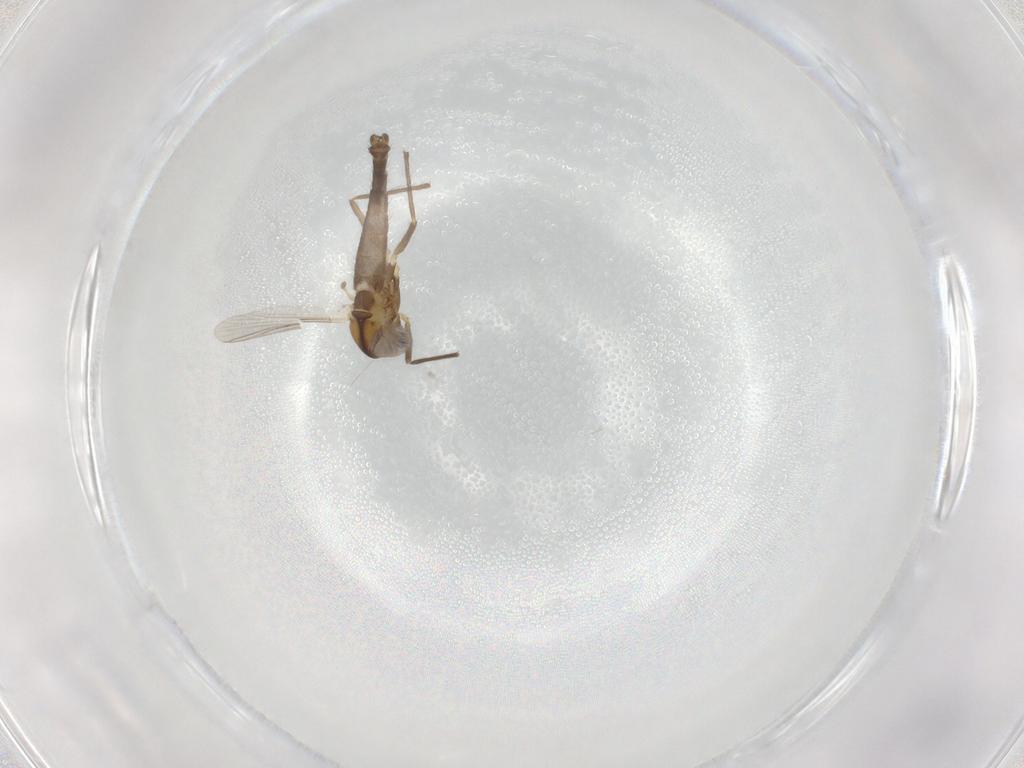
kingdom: Animalia
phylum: Arthropoda
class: Insecta
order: Diptera
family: Chironomidae
